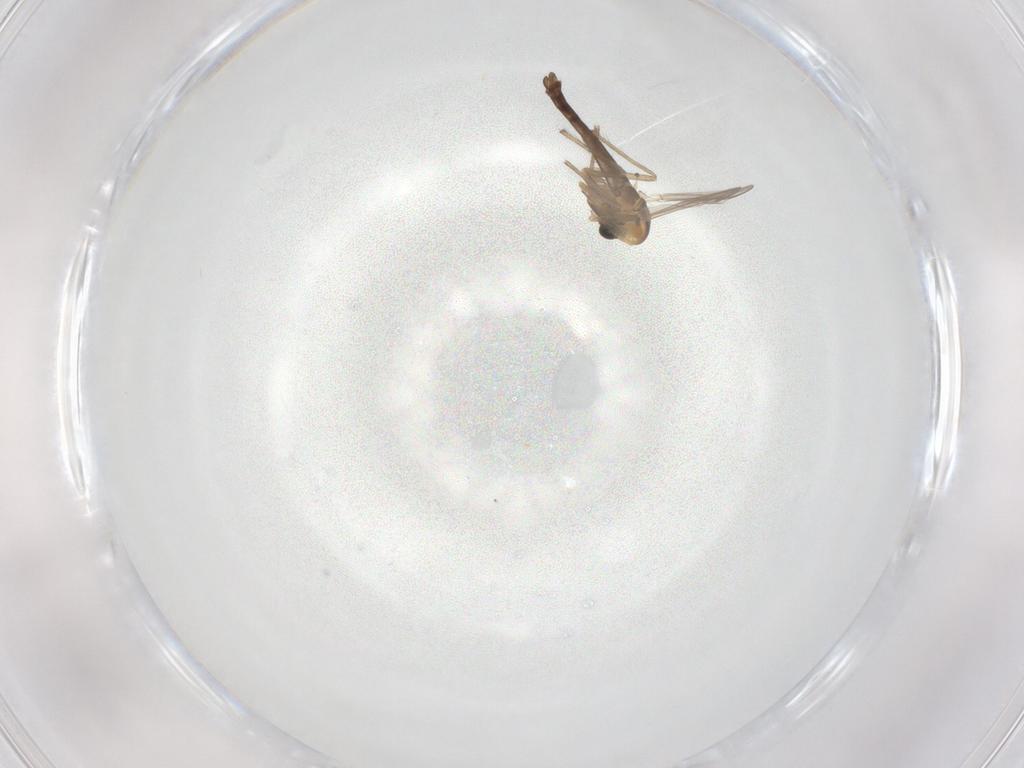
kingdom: Animalia
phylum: Arthropoda
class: Insecta
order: Diptera
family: Chironomidae
